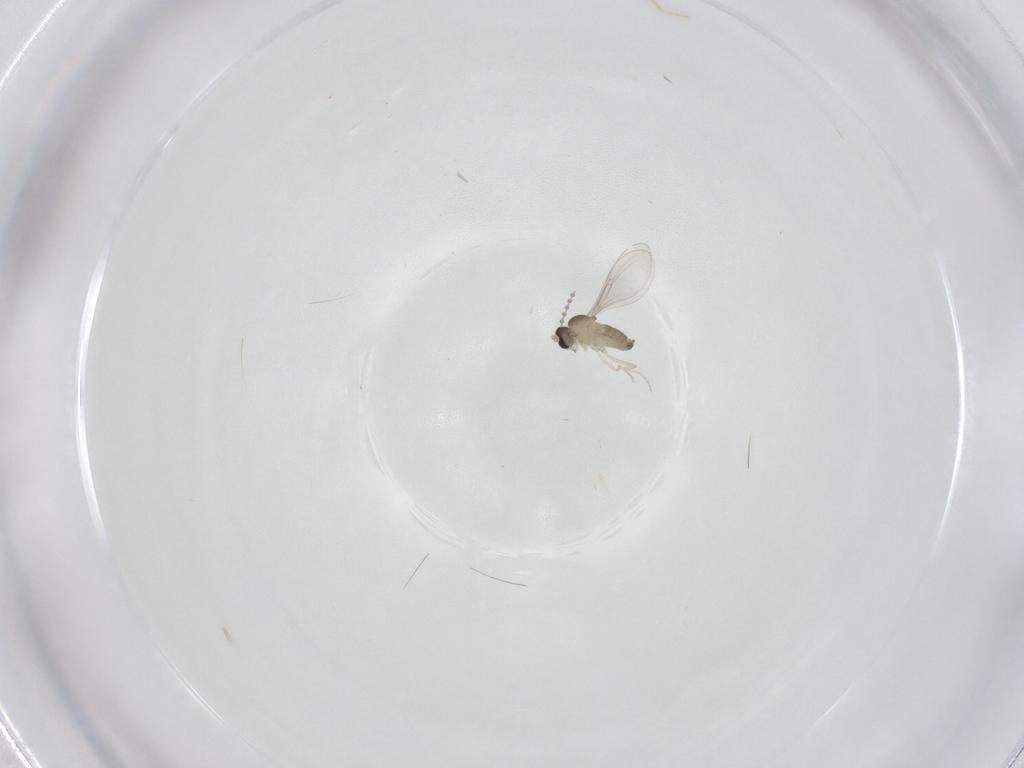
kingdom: Animalia
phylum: Arthropoda
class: Insecta
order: Diptera
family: Cecidomyiidae
